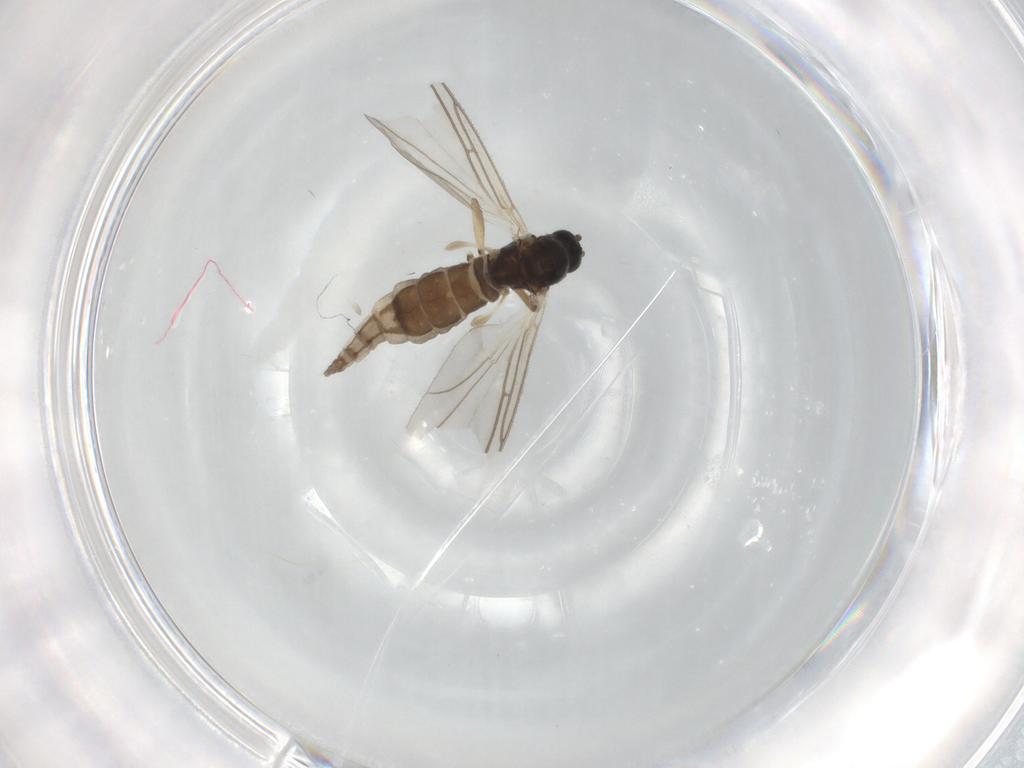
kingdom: Animalia
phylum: Arthropoda
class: Insecta
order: Diptera
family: Sciaridae
